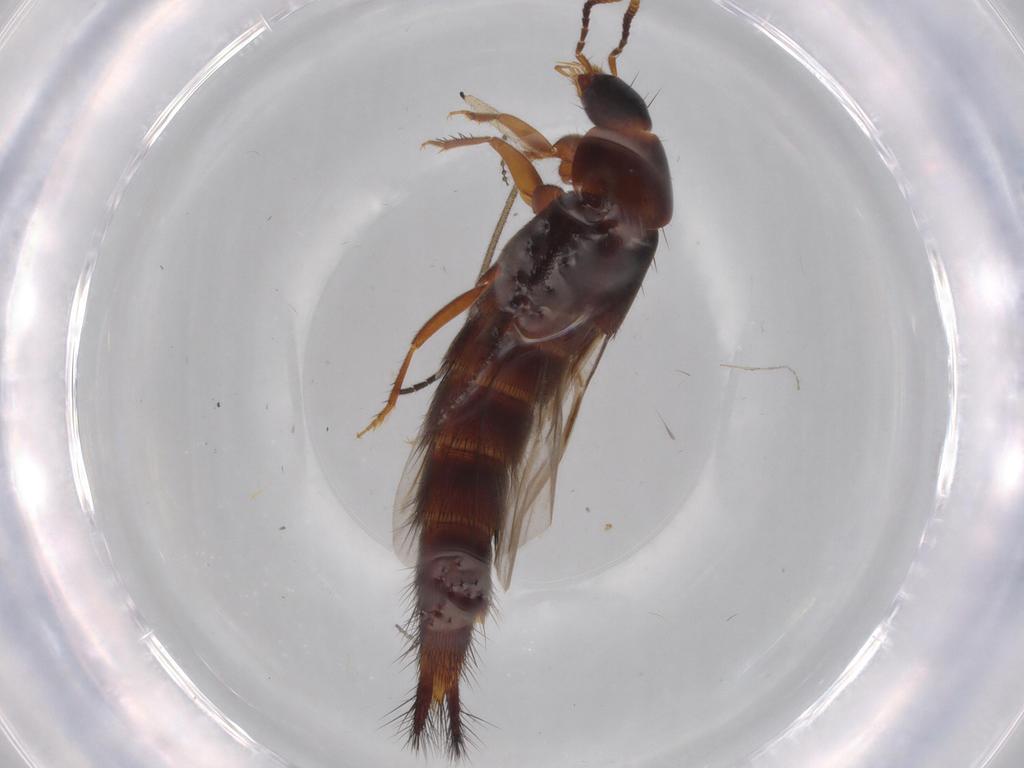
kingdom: Animalia
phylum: Arthropoda
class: Insecta
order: Coleoptera
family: Staphylinidae
